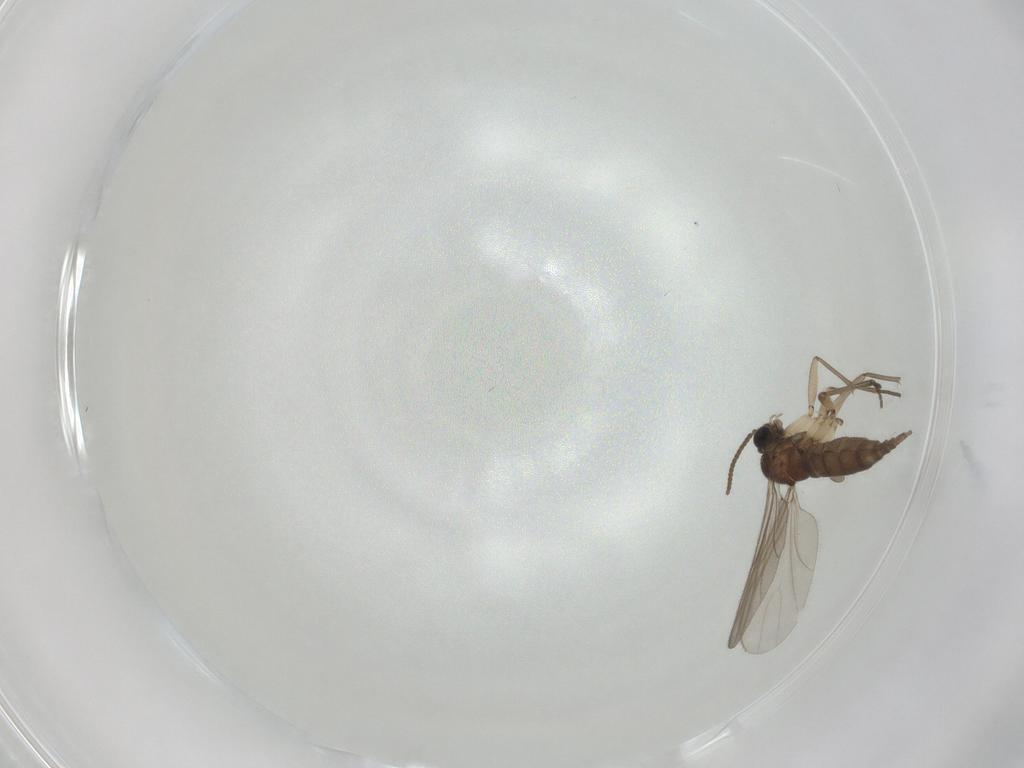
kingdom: Animalia
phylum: Arthropoda
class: Insecta
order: Diptera
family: Sciaridae
